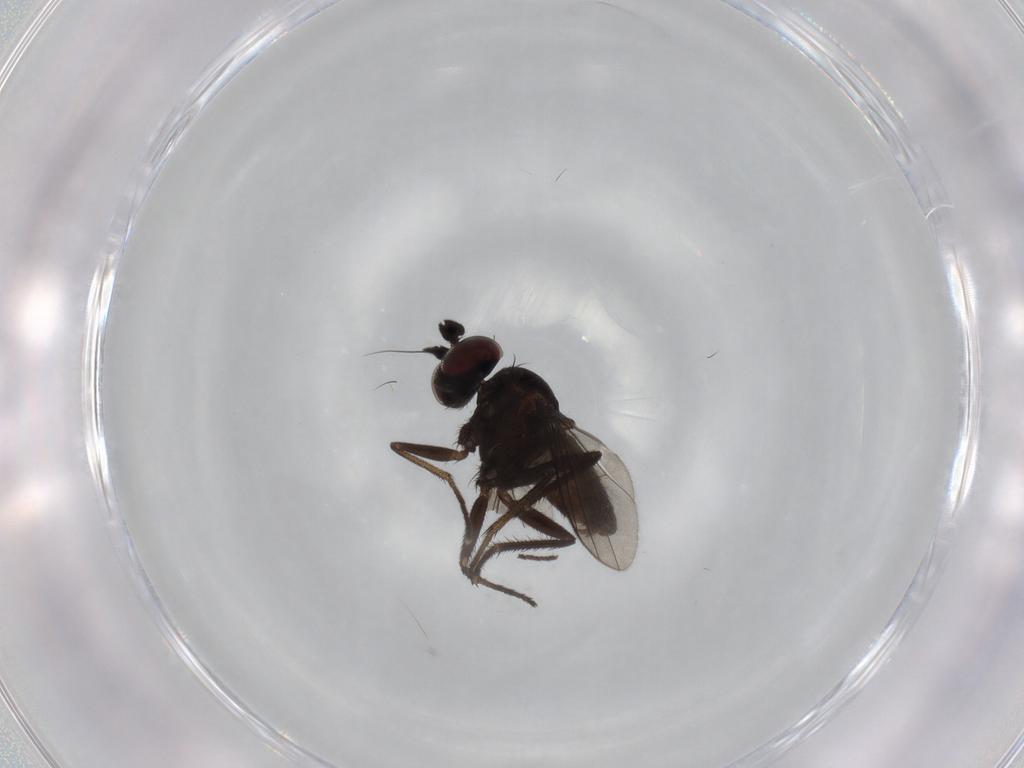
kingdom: Animalia
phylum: Arthropoda
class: Insecta
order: Diptera
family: Dolichopodidae
